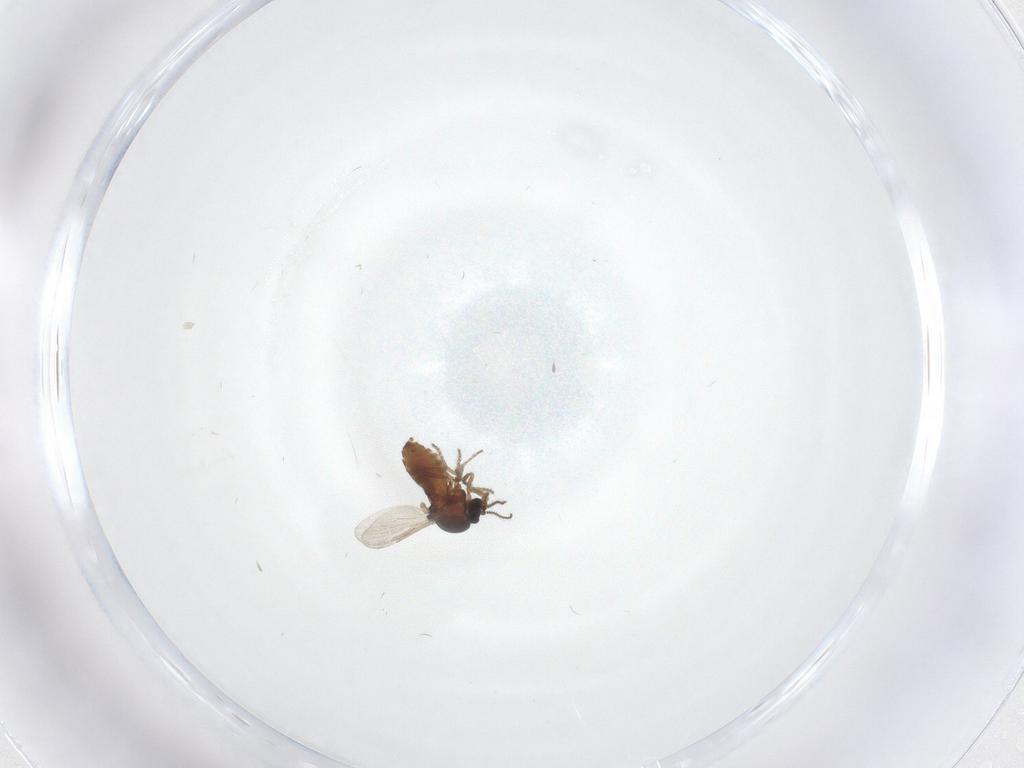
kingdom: Animalia
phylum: Arthropoda
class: Insecta
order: Diptera
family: Ceratopogonidae
